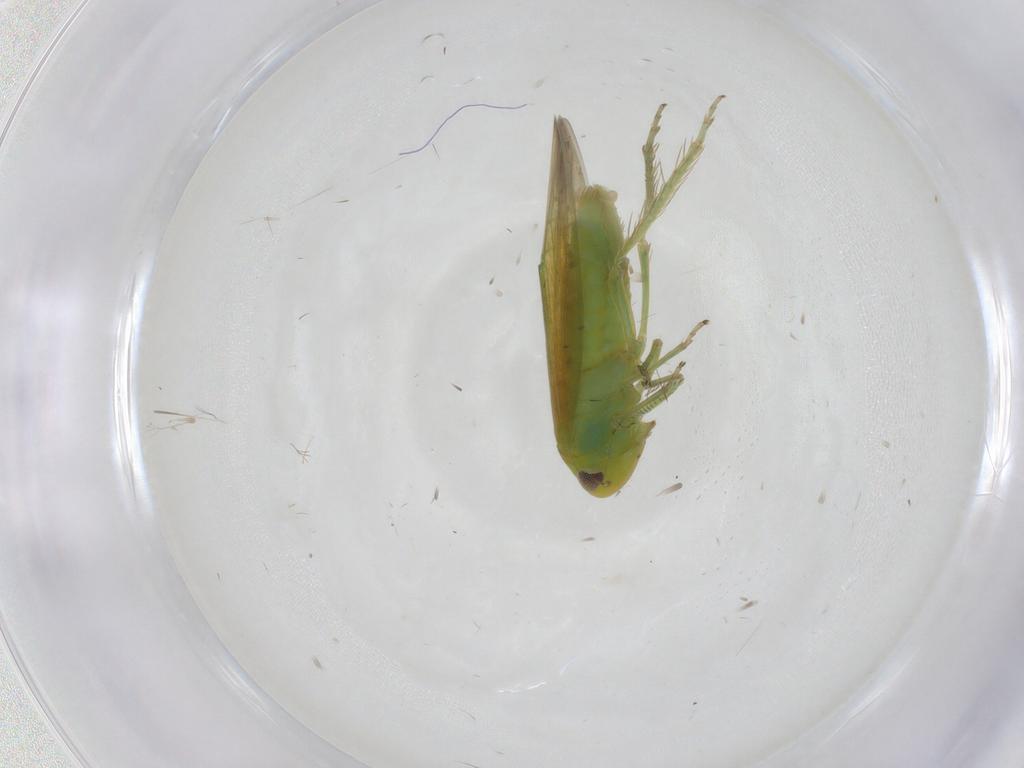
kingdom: Animalia
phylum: Arthropoda
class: Insecta
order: Hemiptera
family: Cicadellidae
